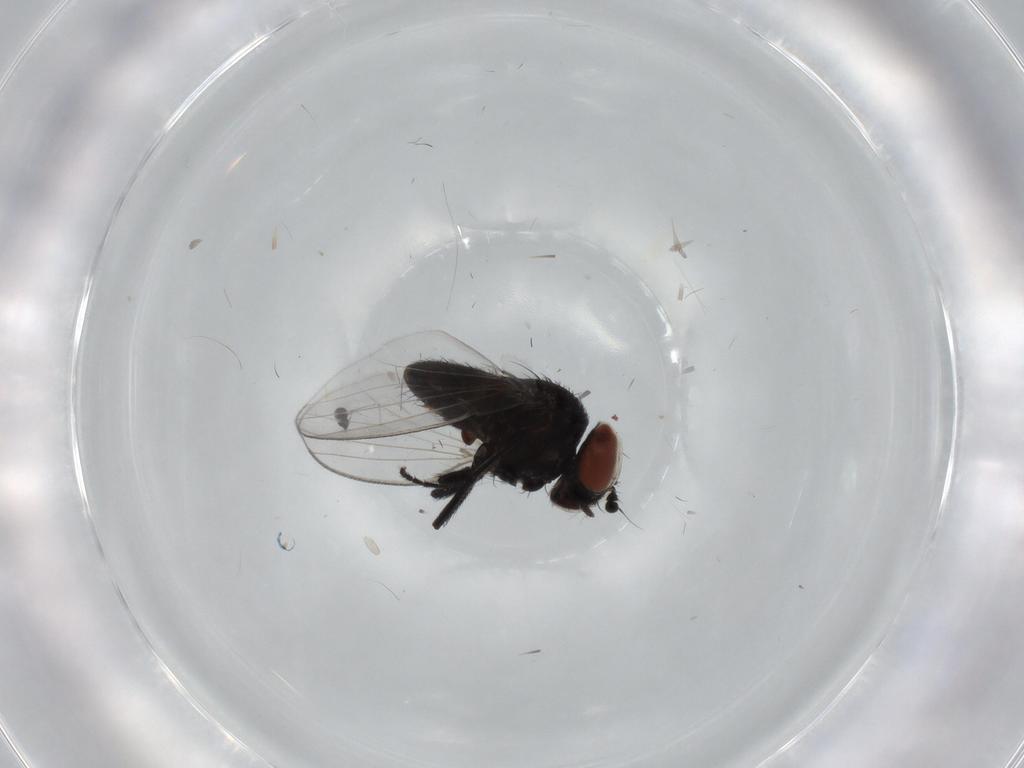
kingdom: Animalia
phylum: Arthropoda
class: Insecta
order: Diptera
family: Milichiidae
